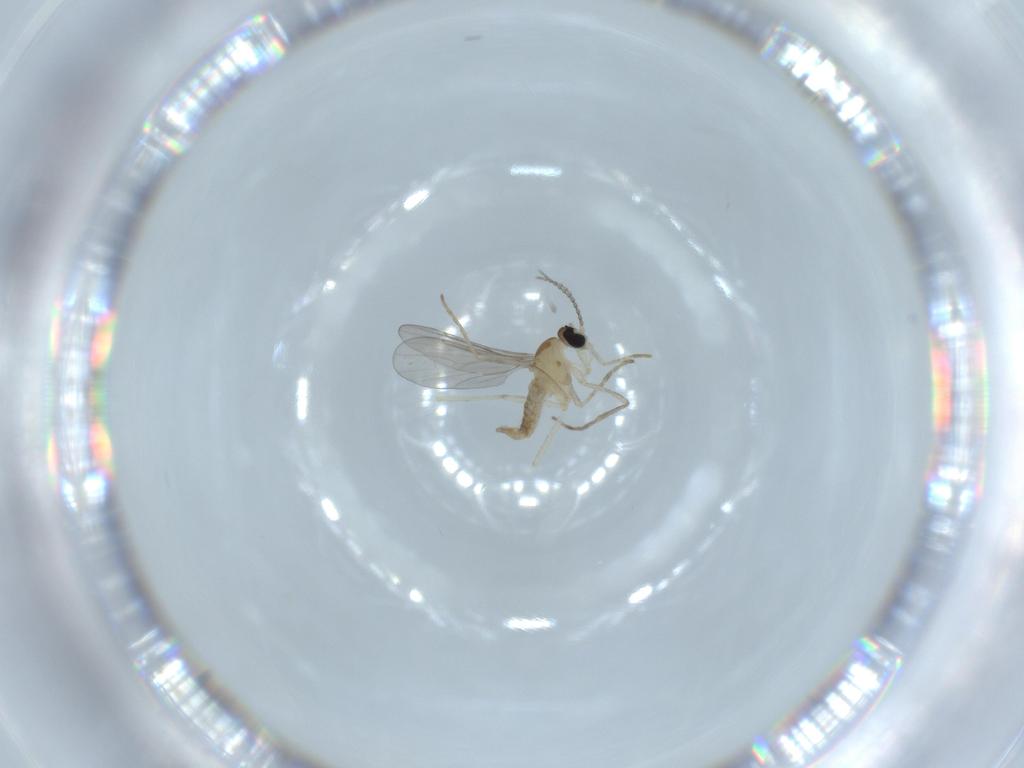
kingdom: Animalia
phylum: Arthropoda
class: Insecta
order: Diptera
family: Cecidomyiidae
